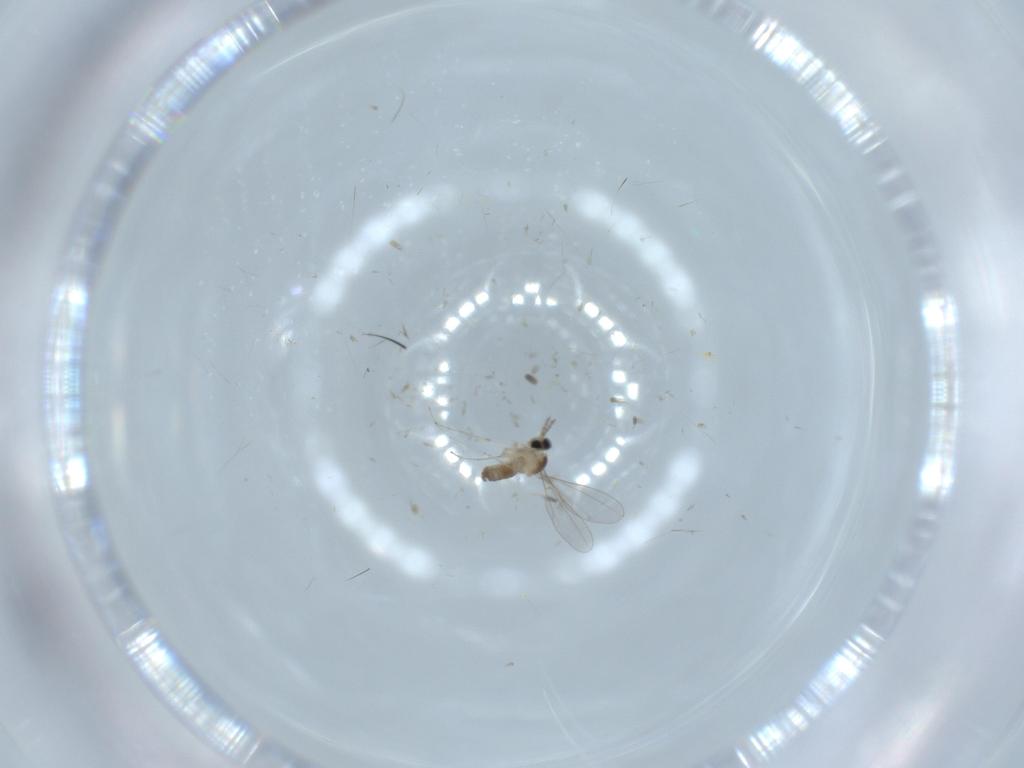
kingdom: Animalia
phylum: Arthropoda
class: Insecta
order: Diptera
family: Cecidomyiidae
